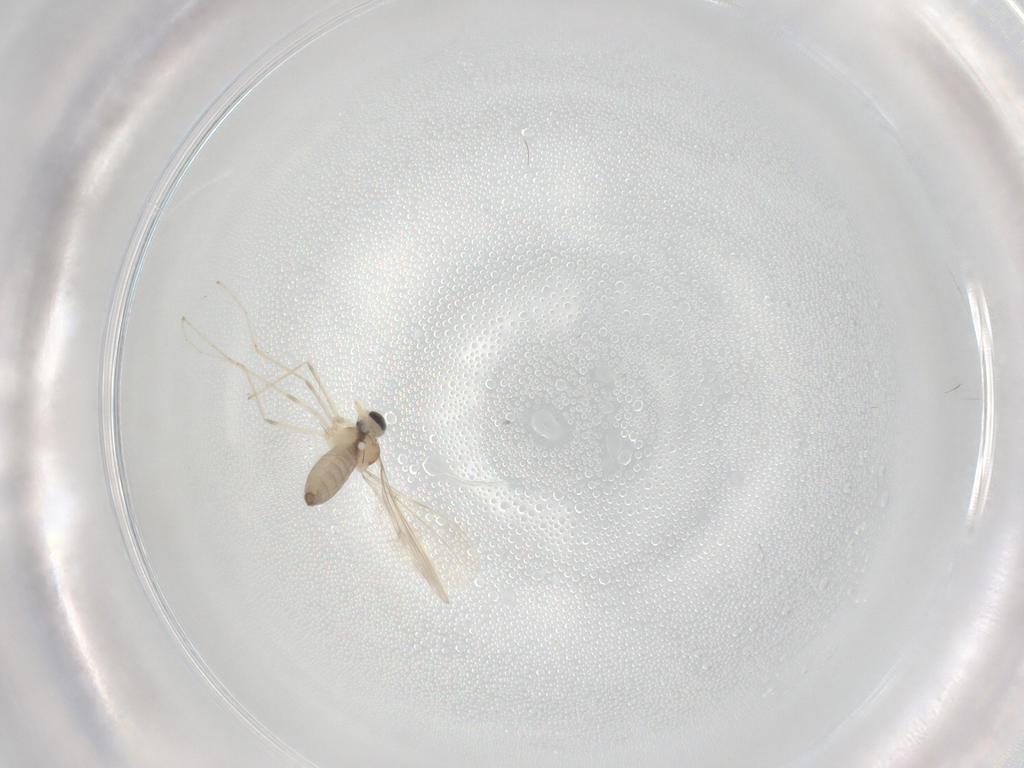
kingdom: Animalia
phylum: Arthropoda
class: Insecta
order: Diptera
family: Cecidomyiidae
